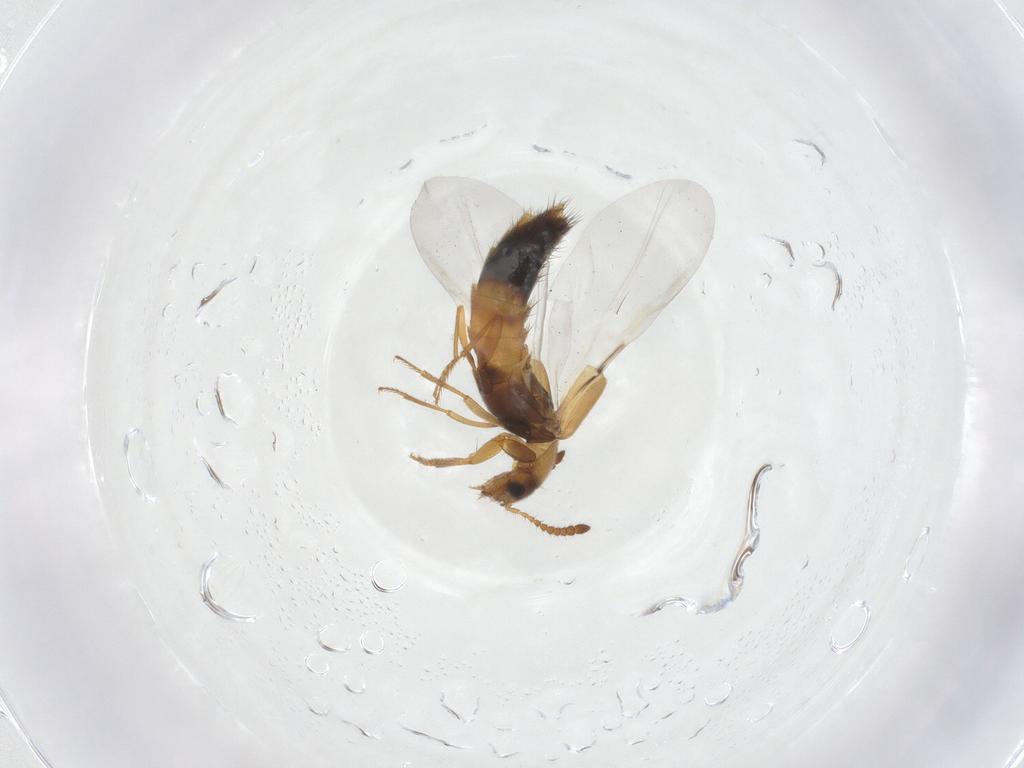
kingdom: Animalia
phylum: Arthropoda
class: Insecta
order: Coleoptera
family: Staphylinidae
